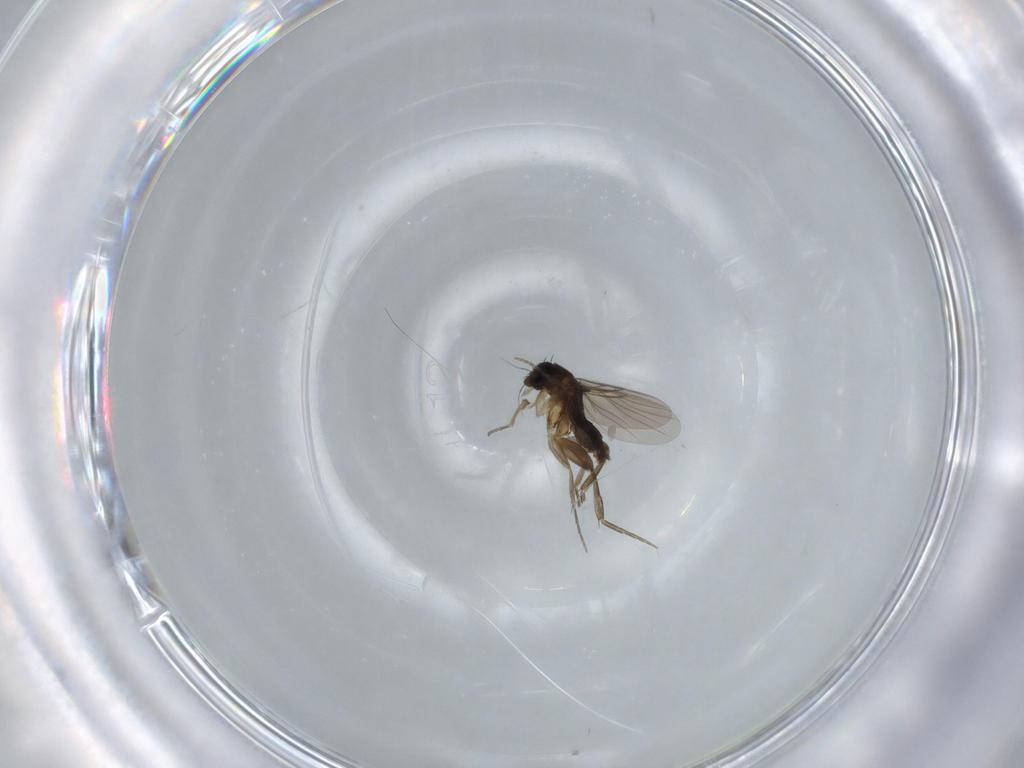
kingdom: Animalia
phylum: Arthropoda
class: Insecta
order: Diptera
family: Phoridae
